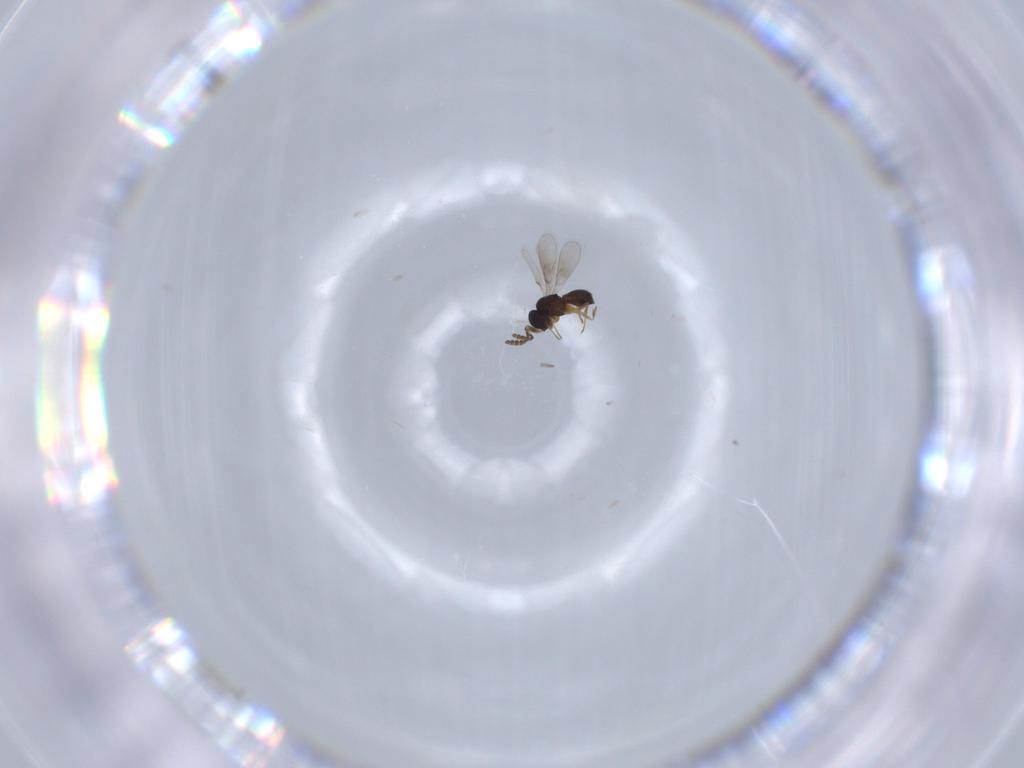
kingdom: Animalia
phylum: Arthropoda
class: Insecta
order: Hymenoptera
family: Scelionidae
